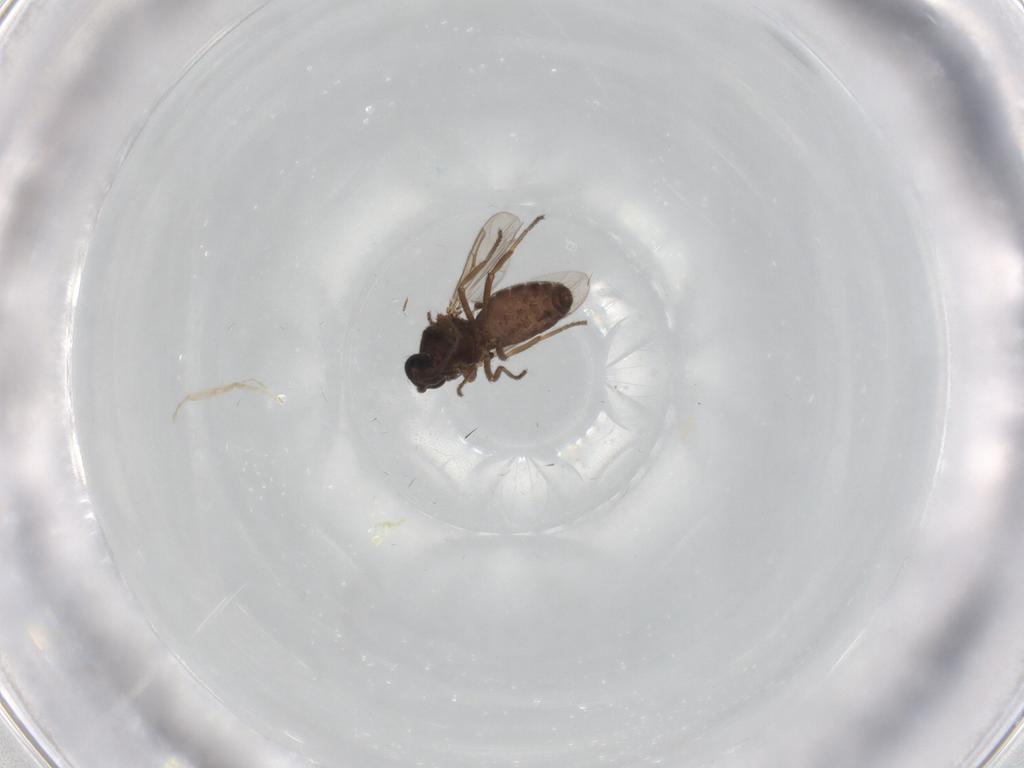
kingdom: Animalia
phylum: Arthropoda
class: Insecta
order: Diptera
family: Ceratopogonidae
